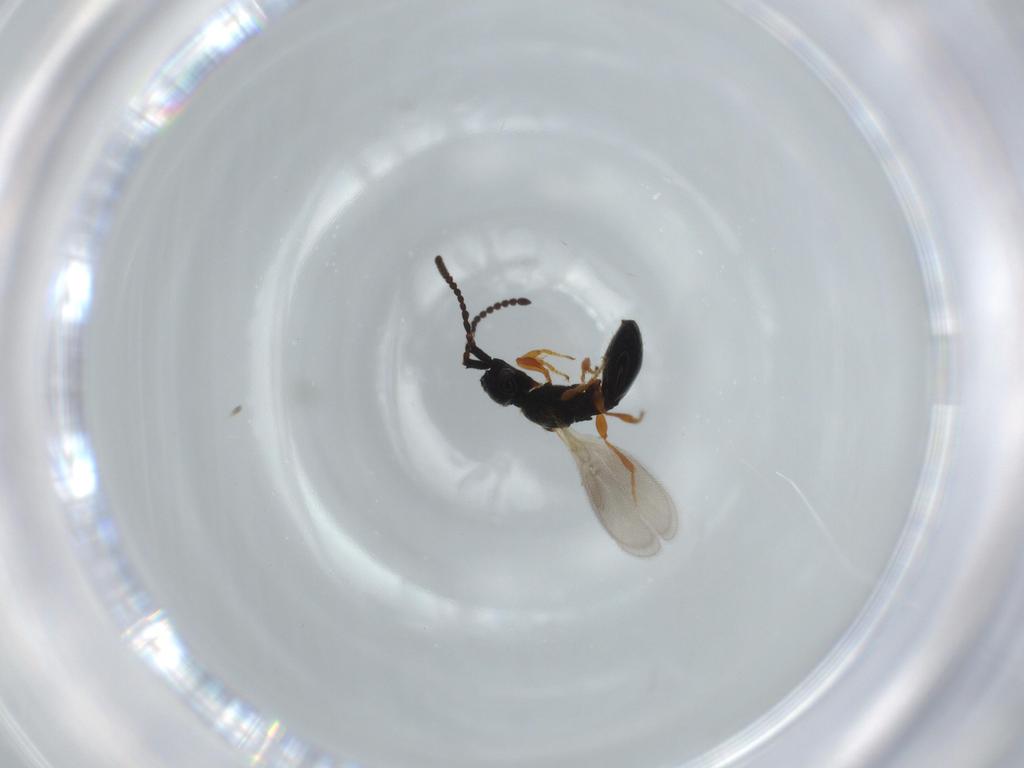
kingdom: Animalia
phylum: Arthropoda
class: Insecta
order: Hymenoptera
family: Diapriidae
